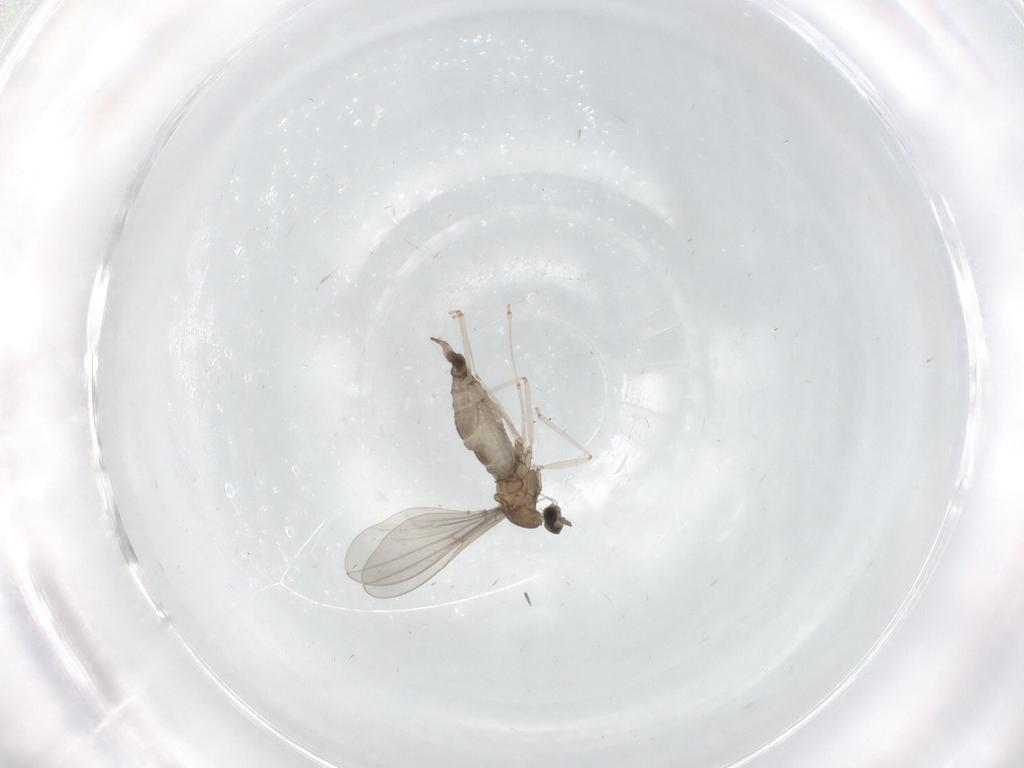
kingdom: Animalia
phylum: Arthropoda
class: Insecta
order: Diptera
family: Cecidomyiidae
